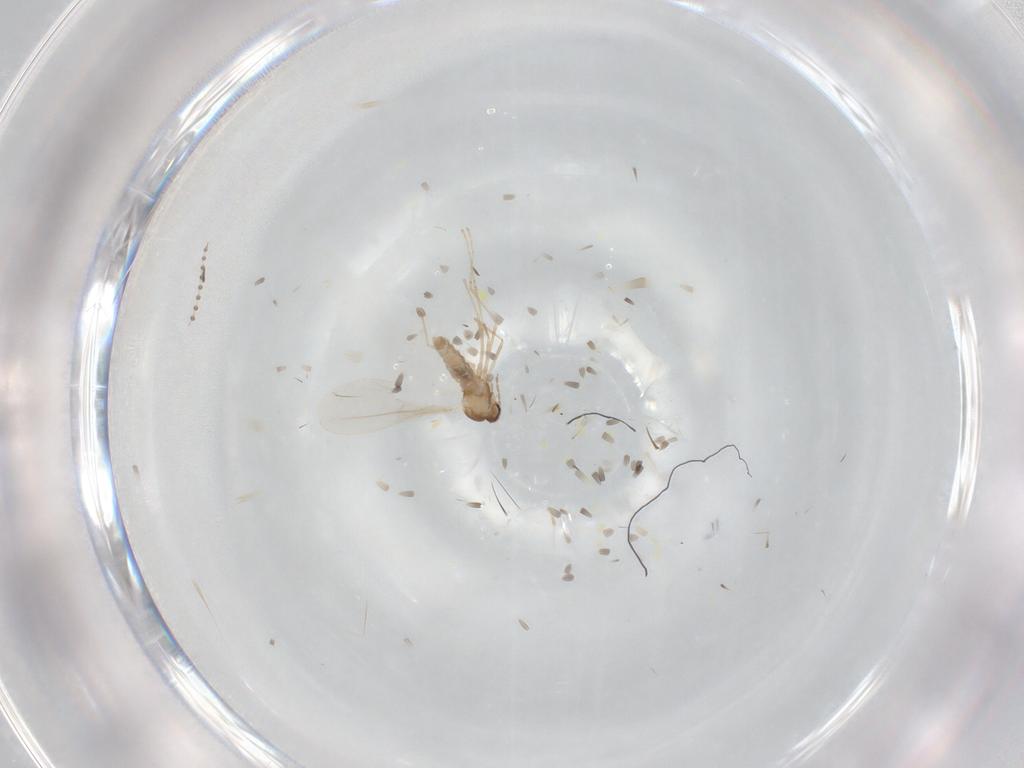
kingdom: Animalia
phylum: Arthropoda
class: Insecta
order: Diptera
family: Cecidomyiidae
